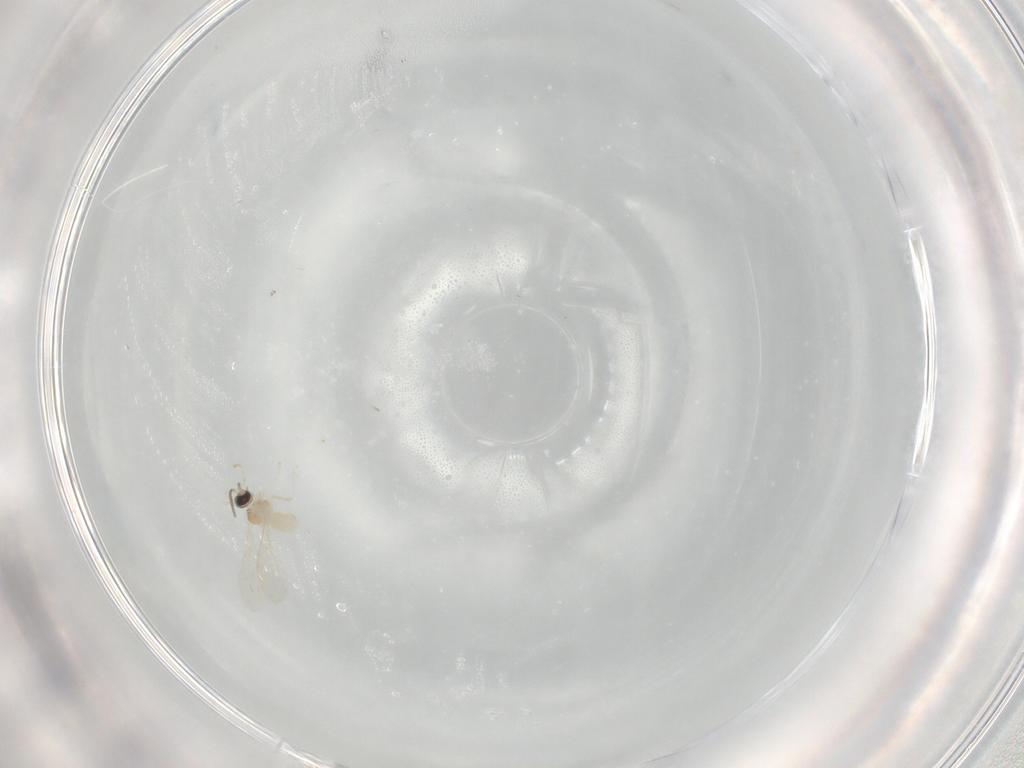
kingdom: Animalia
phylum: Arthropoda
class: Insecta
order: Diptera
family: Cecidomyiidae
